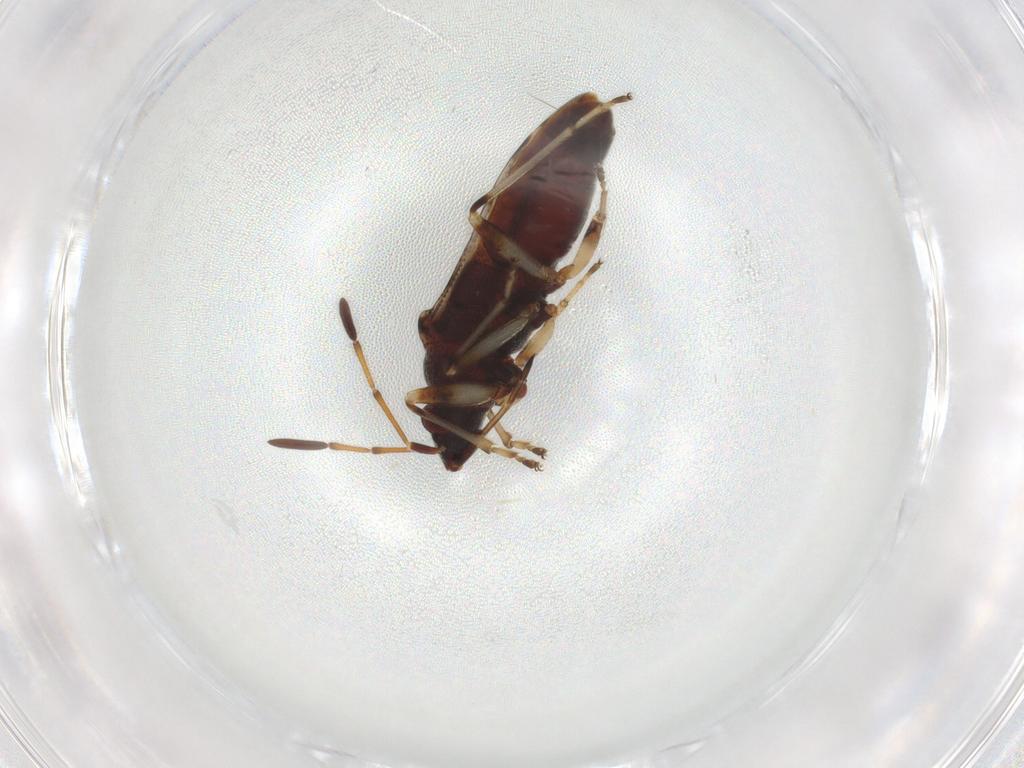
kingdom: Animalia
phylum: Arthropoda
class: Insecta
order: Hemiptera
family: Rhyparochromidae
